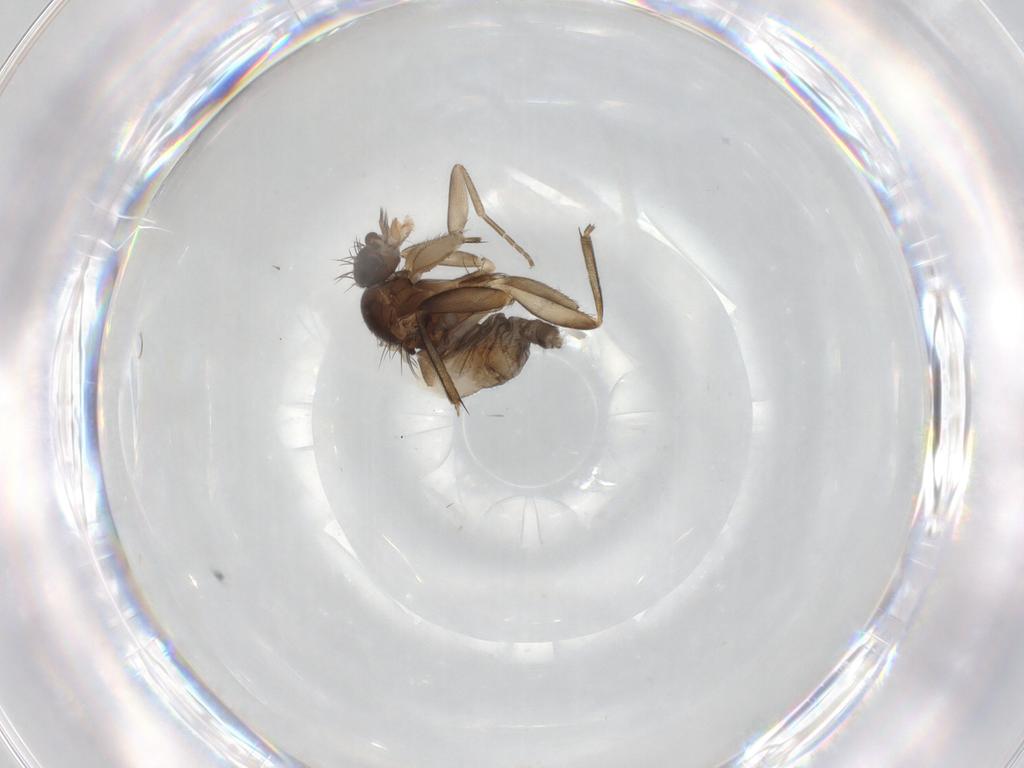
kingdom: Animalia
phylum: Arthropoda
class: Insecta
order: Diptera
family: Phoridae
